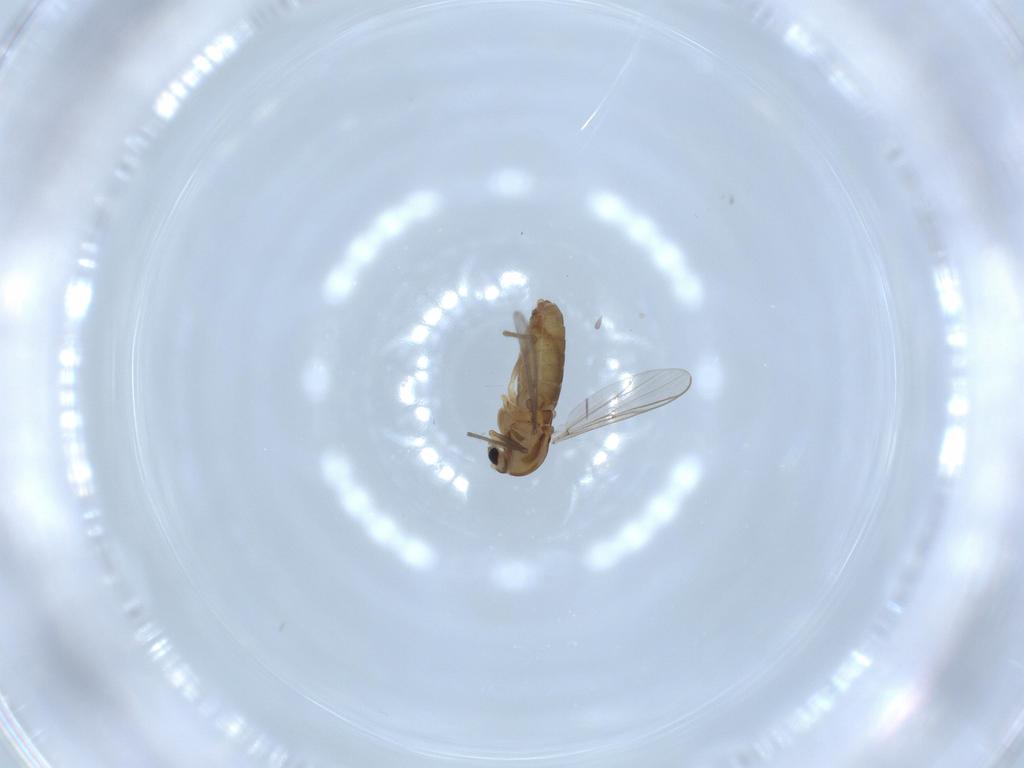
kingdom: Animalia
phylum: Arthropoda
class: Insecta
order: Diptera
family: Chironomidae
